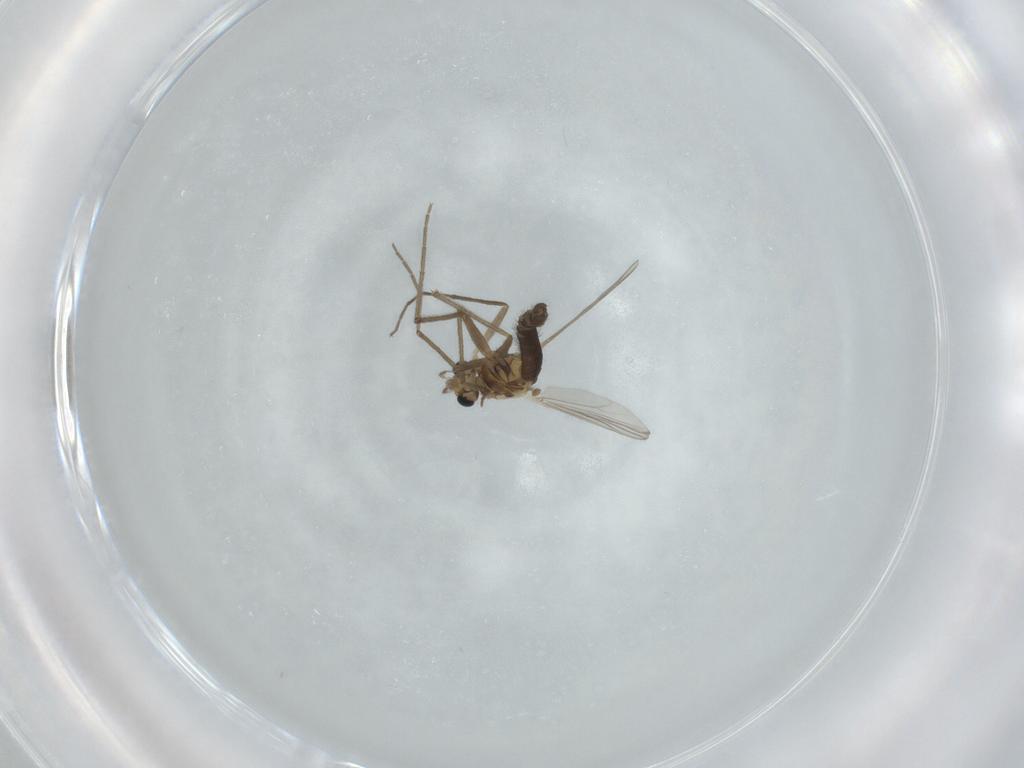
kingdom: Animalia
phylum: Arthropoda
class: Insecta
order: Diptera
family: Chironomidae
